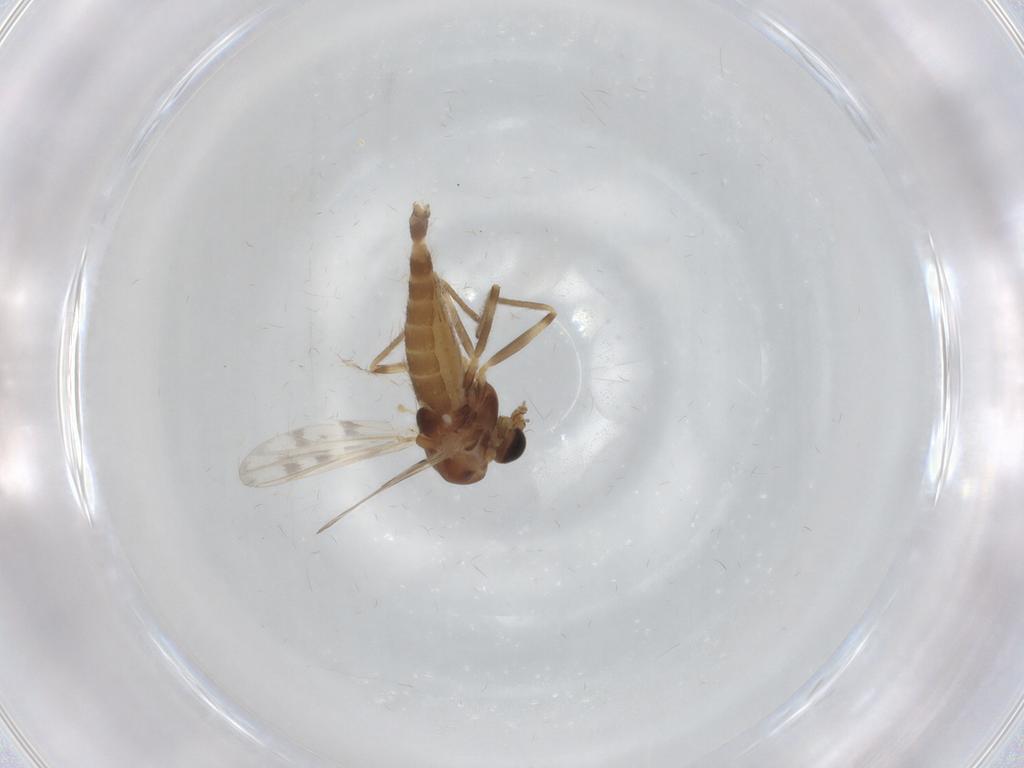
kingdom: Animalia
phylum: Arthropoda
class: Insecta
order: Diptera
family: Chironomidae
